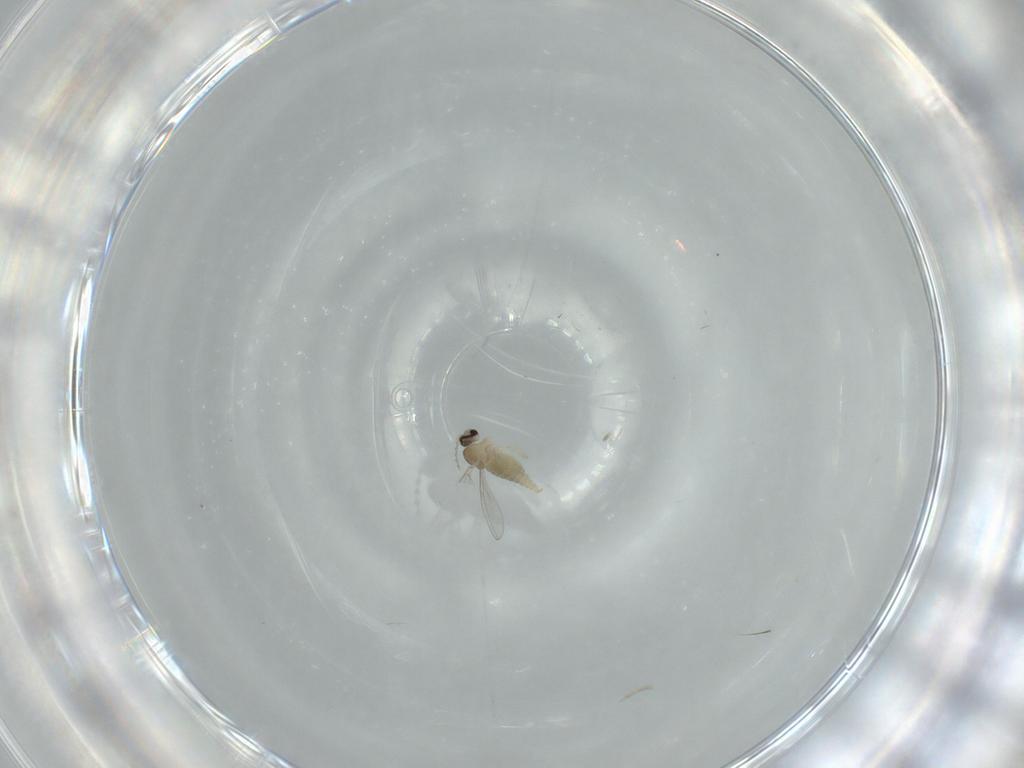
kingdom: Animalia
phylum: Arthropoda
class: Insecta
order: Diptera
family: Cecidomyiidae
